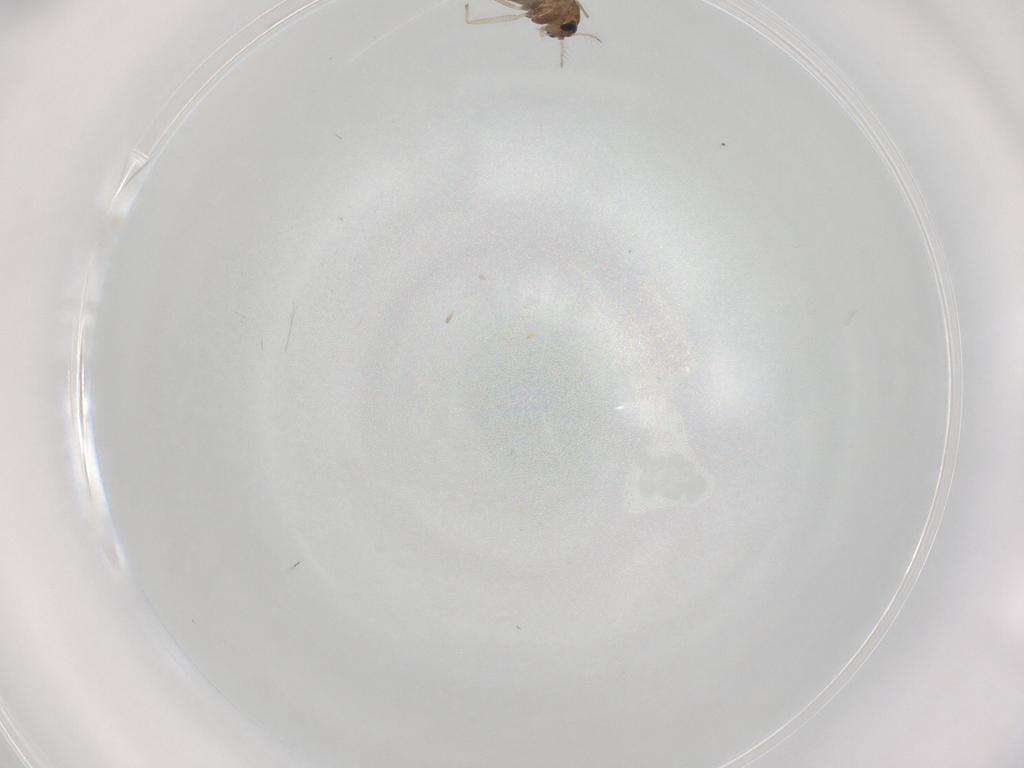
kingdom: Animalia
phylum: Arthropoda
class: Insecta
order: Diptera
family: Chironomidae
